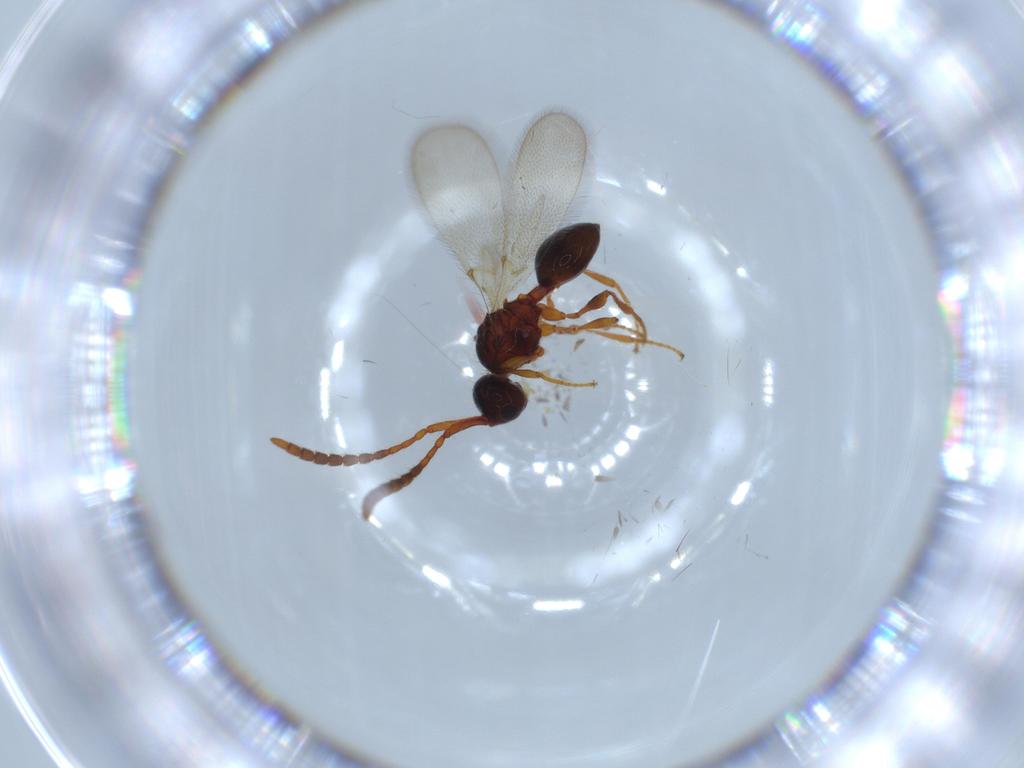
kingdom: Animalia
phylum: Arthropoda
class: Insecta
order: Hymenoptera
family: Diapriidae
